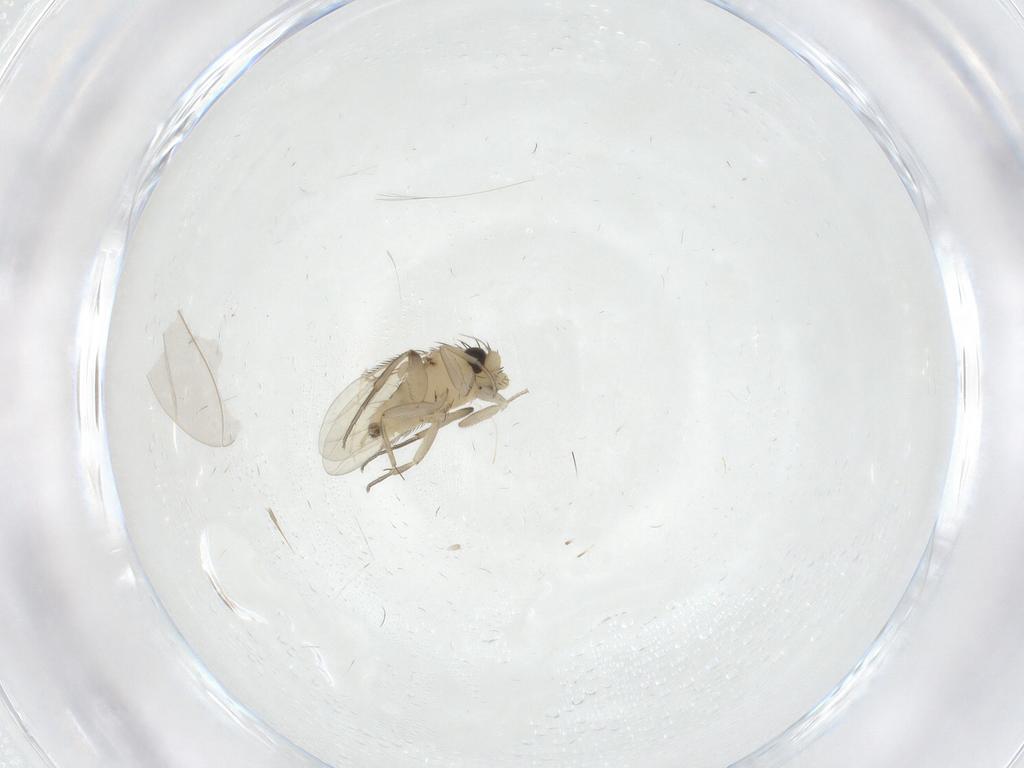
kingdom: Animalia
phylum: Arthropoda
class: Insecta
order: Diptera
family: Phoridae
